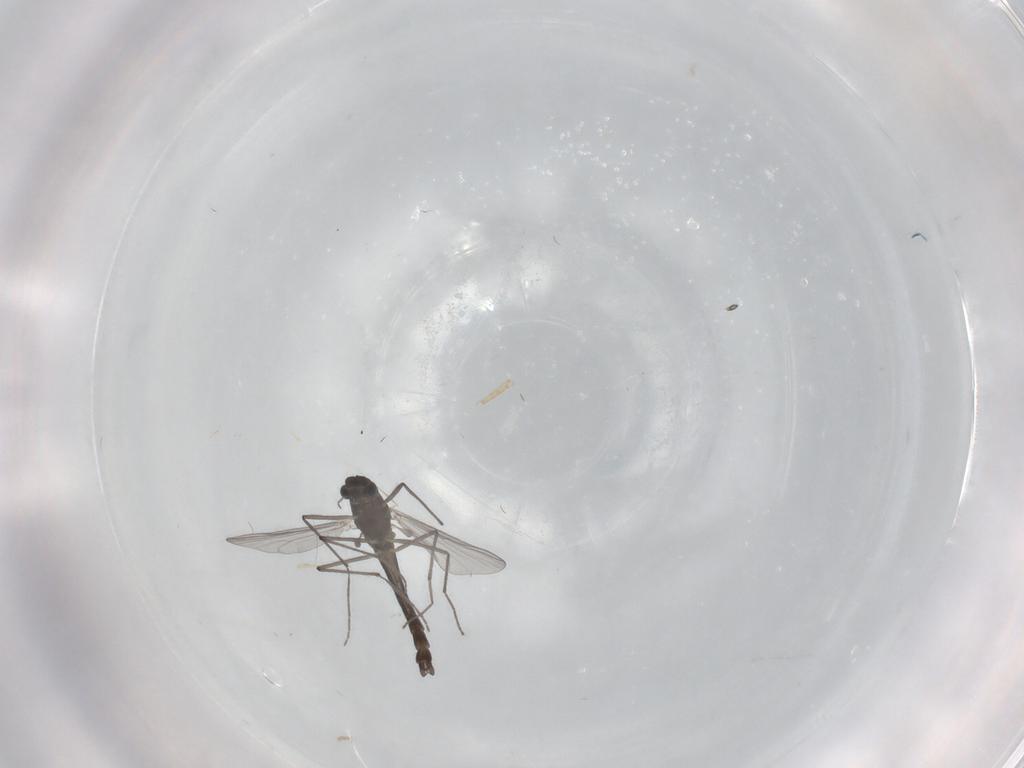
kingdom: Animalia
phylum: Arthropoda
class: Insecta
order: Diptera
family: Chironomidae
